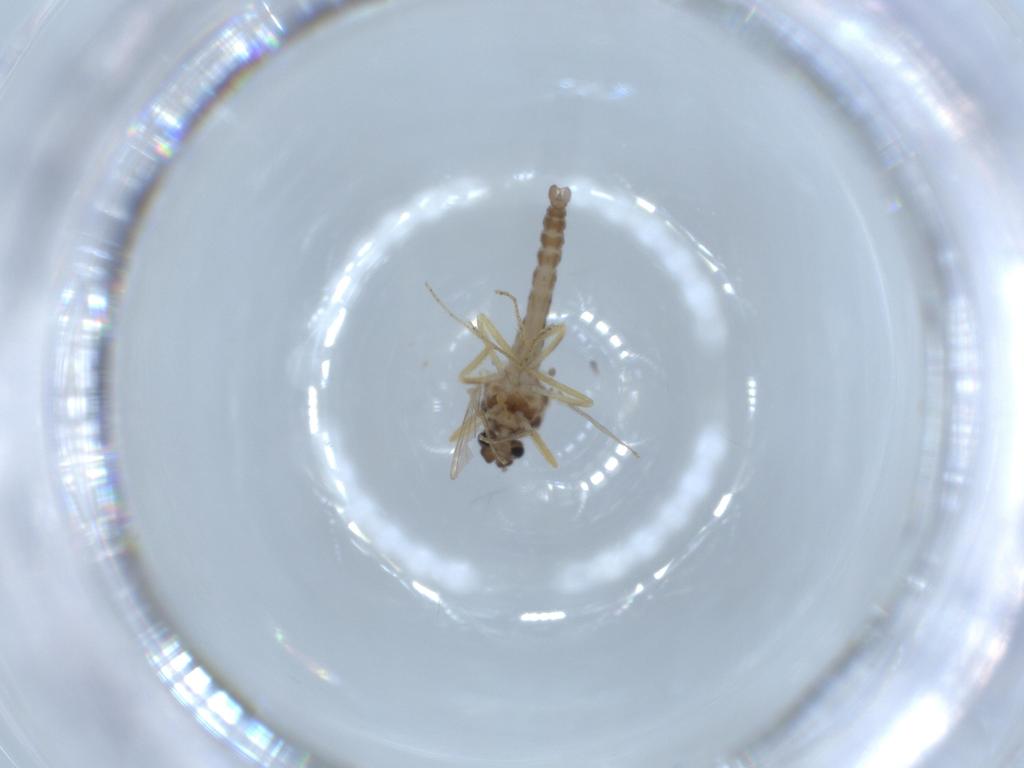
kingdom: Animalia
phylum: Arthropoda
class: Insecta
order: Diptera
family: Ceratopogonidae
